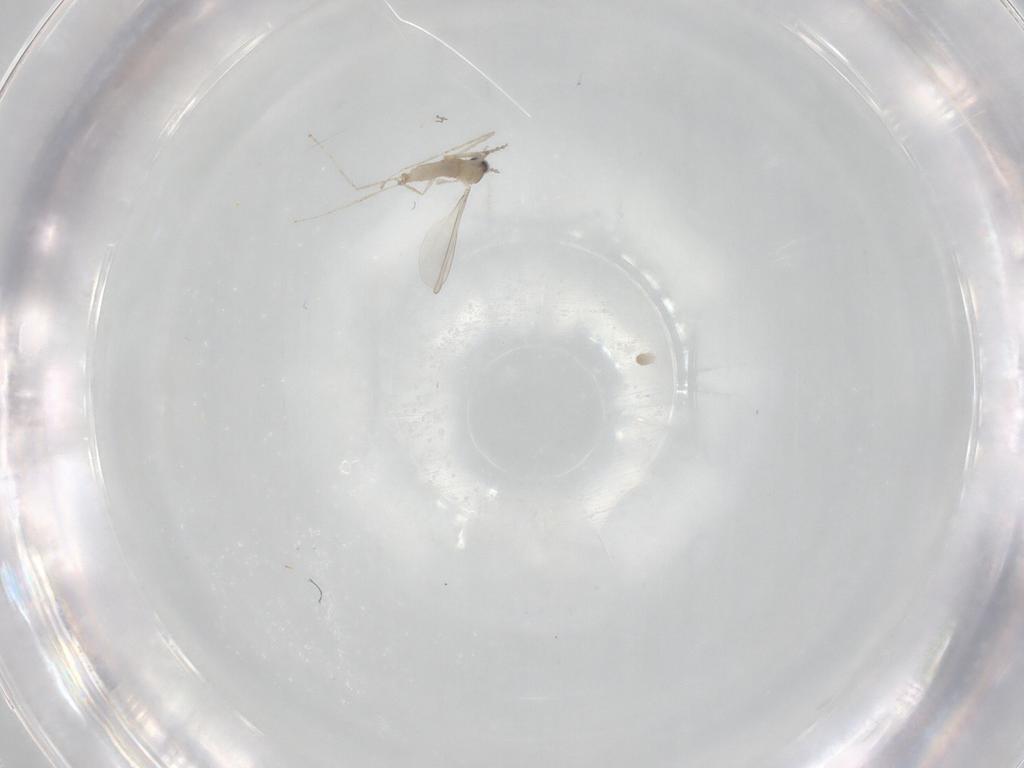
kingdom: Animalia
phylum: Arthropoda
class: Insecta
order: Diptera
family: Cecidomyiidae
